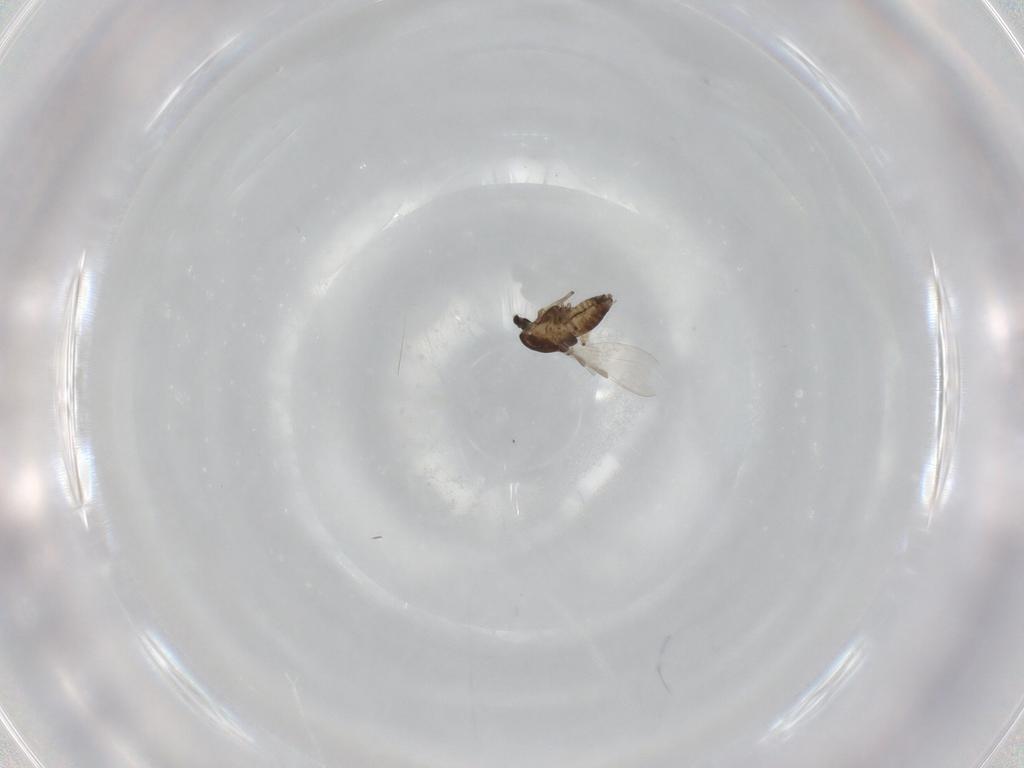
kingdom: Animalia
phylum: Arthropoda
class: Insecta
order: Diptera
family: Chironomidae
